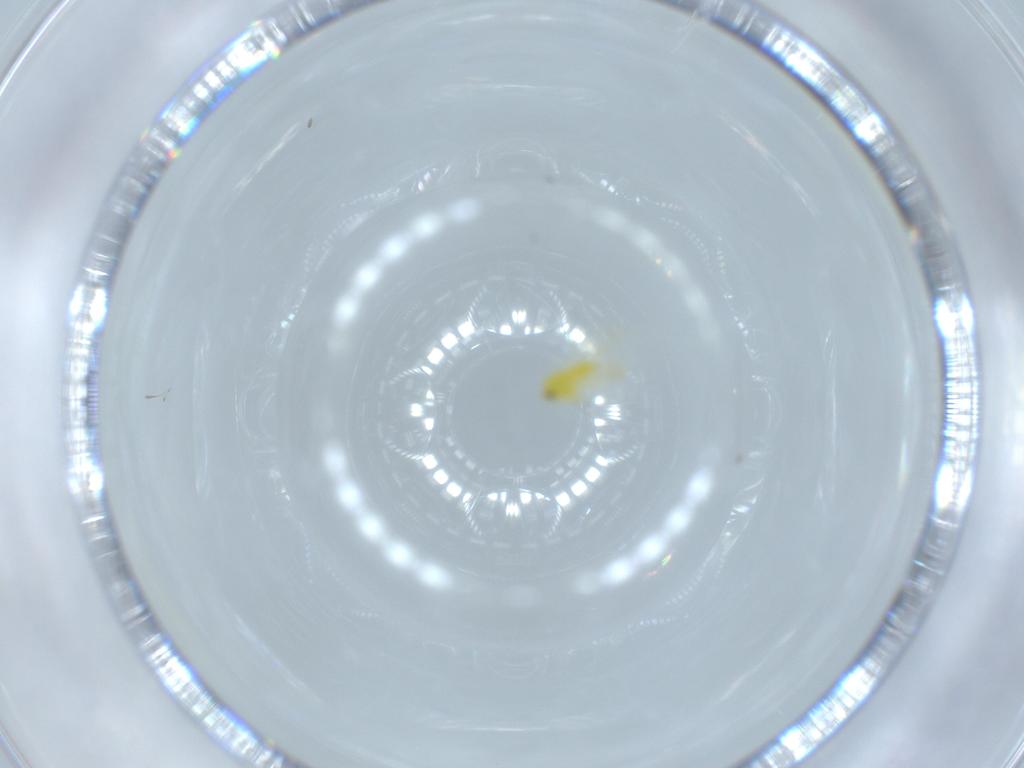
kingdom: Animalia
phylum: Arthropoda
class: Insecta
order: Hemiptera
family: Aleyrodidae
